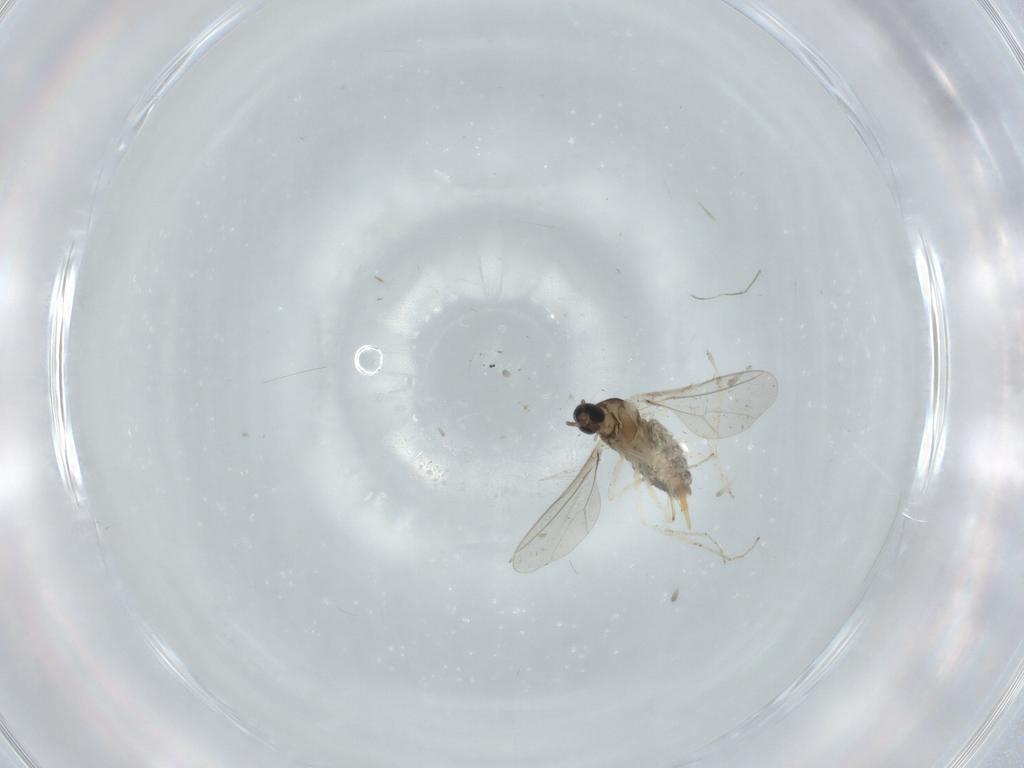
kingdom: Animalia
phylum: Arthropoda
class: Insecta
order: Diptera
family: Cecidomyiidae
